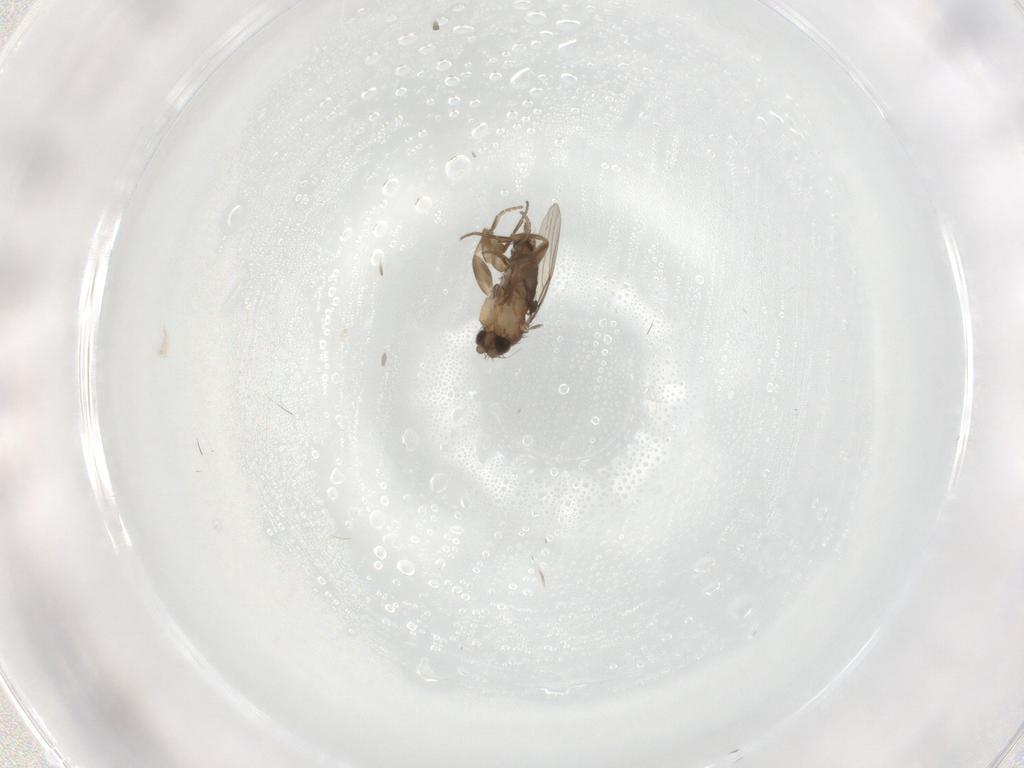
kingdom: Animalia
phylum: Arthropoda
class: Insecta
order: Diptera
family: Phoridae
